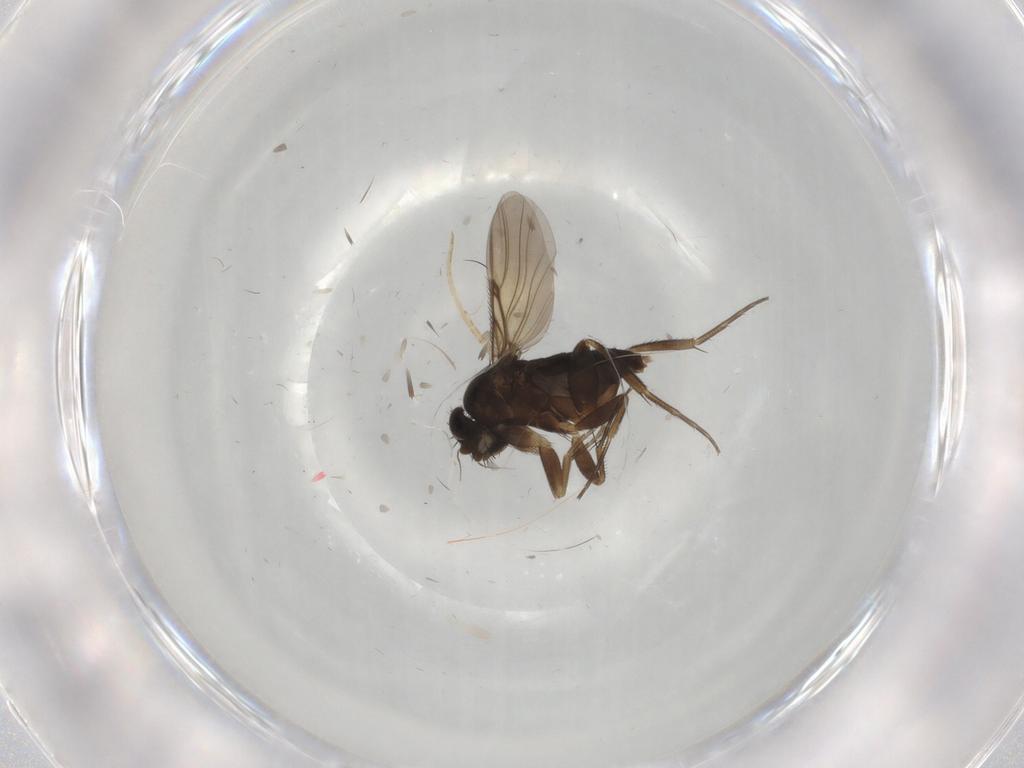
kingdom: Animalia
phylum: Arthropoda
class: Insecta
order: Diptera
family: Phoridae
